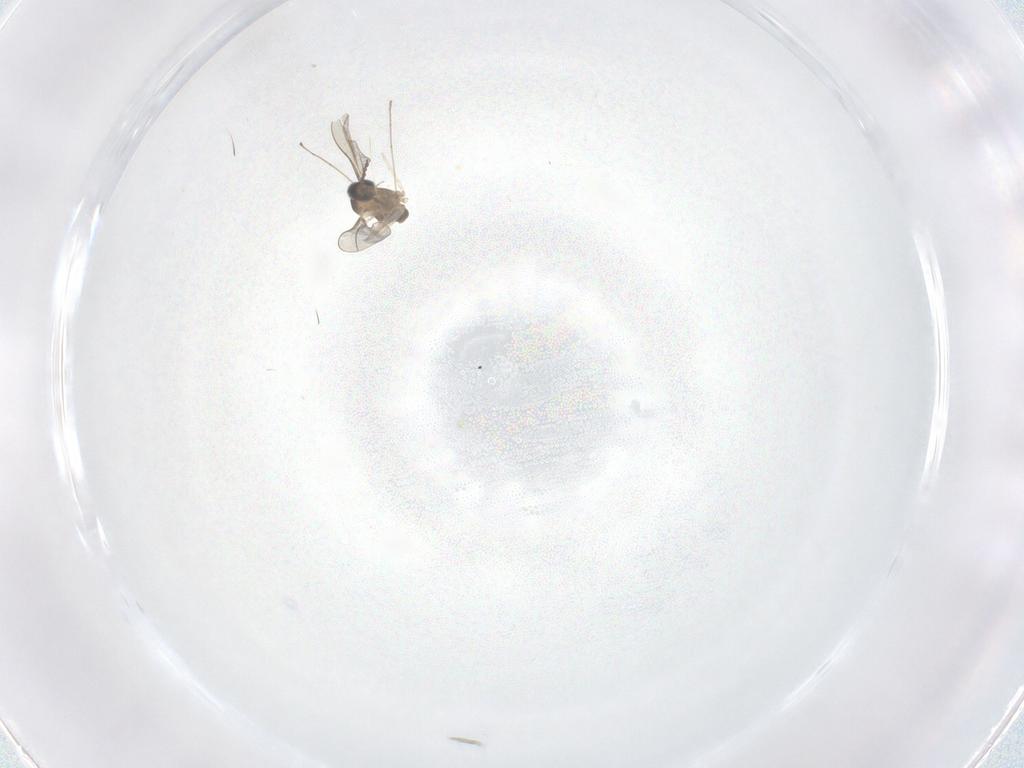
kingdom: Animalia
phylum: Arthropoda
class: Insecta
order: Diptera
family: Cecidomyiidae
